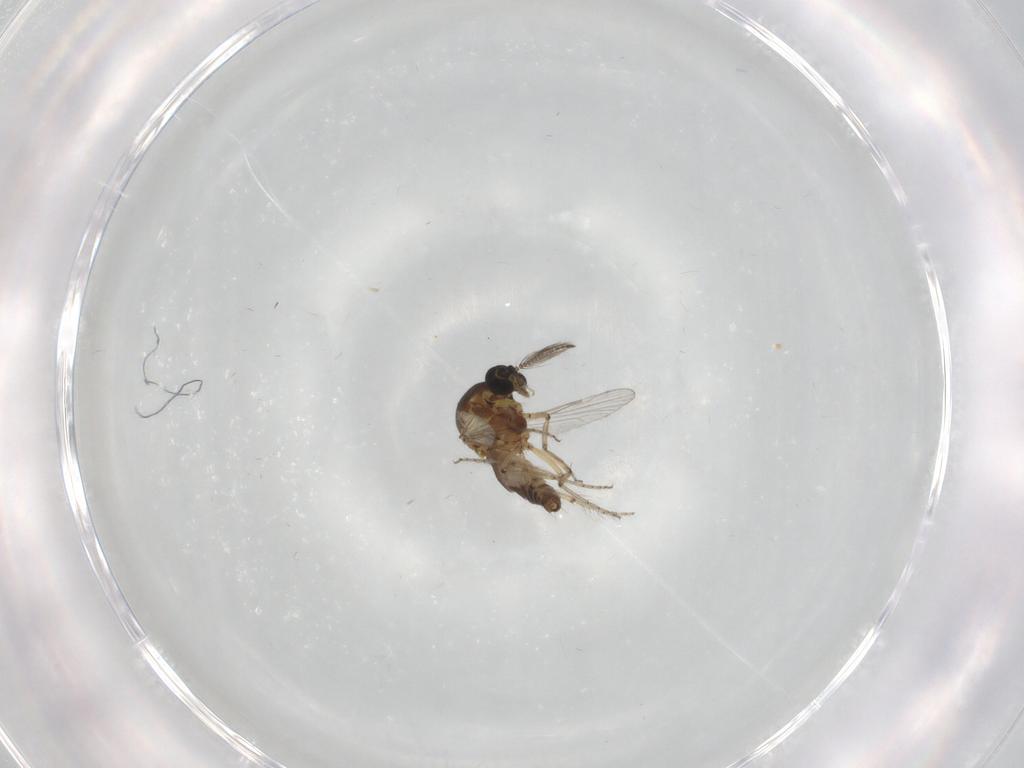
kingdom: Animalia
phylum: Arthropoda
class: Insecta
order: Diptera
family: Ceratopogonidae
